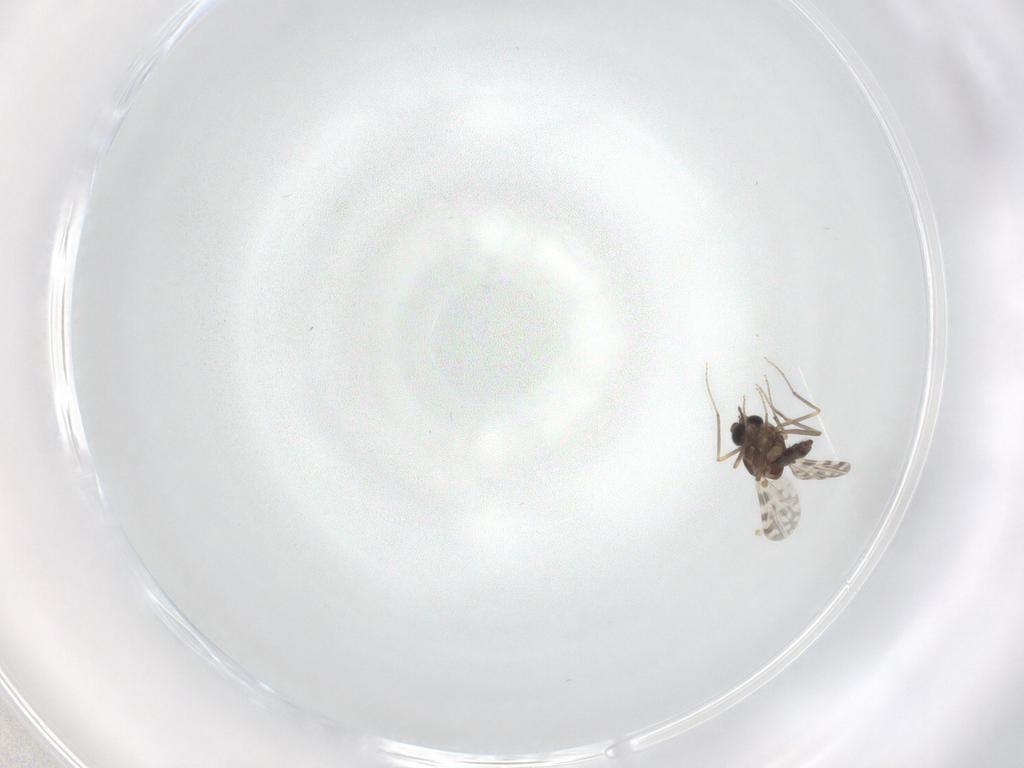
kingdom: Animalia
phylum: Arthropoda
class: Insecta
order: Diptera
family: Ceratopogonidae
